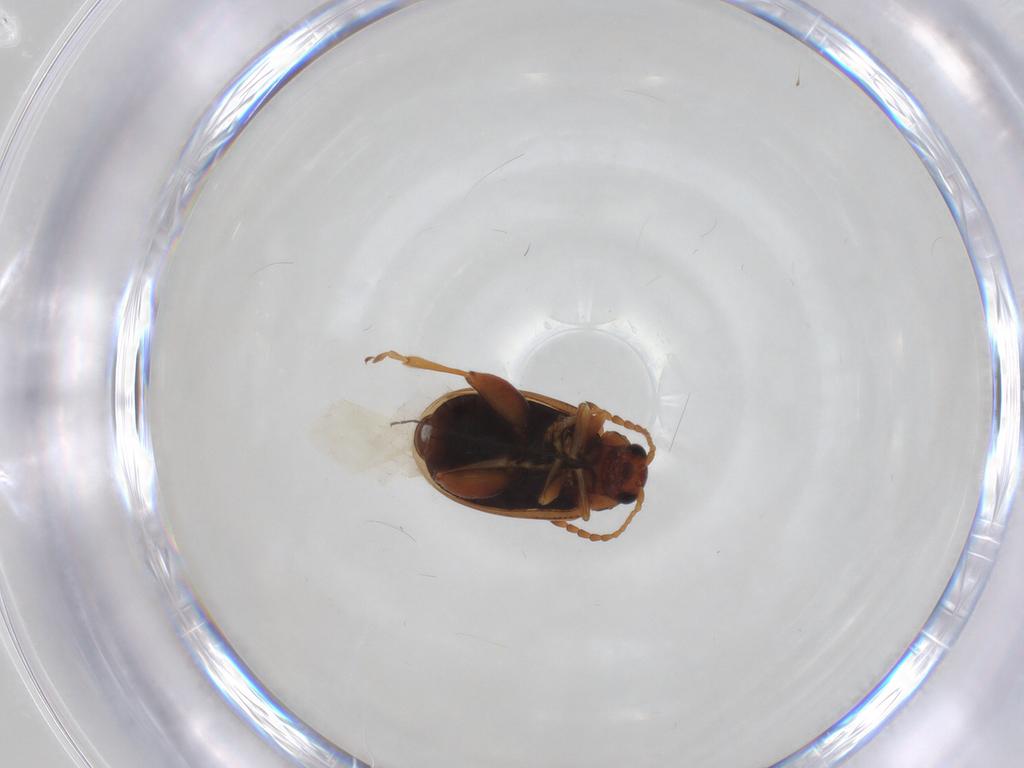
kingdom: Animalia
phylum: Arthropoda
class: Insecta
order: Coleoptera
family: Chrysomelidae
